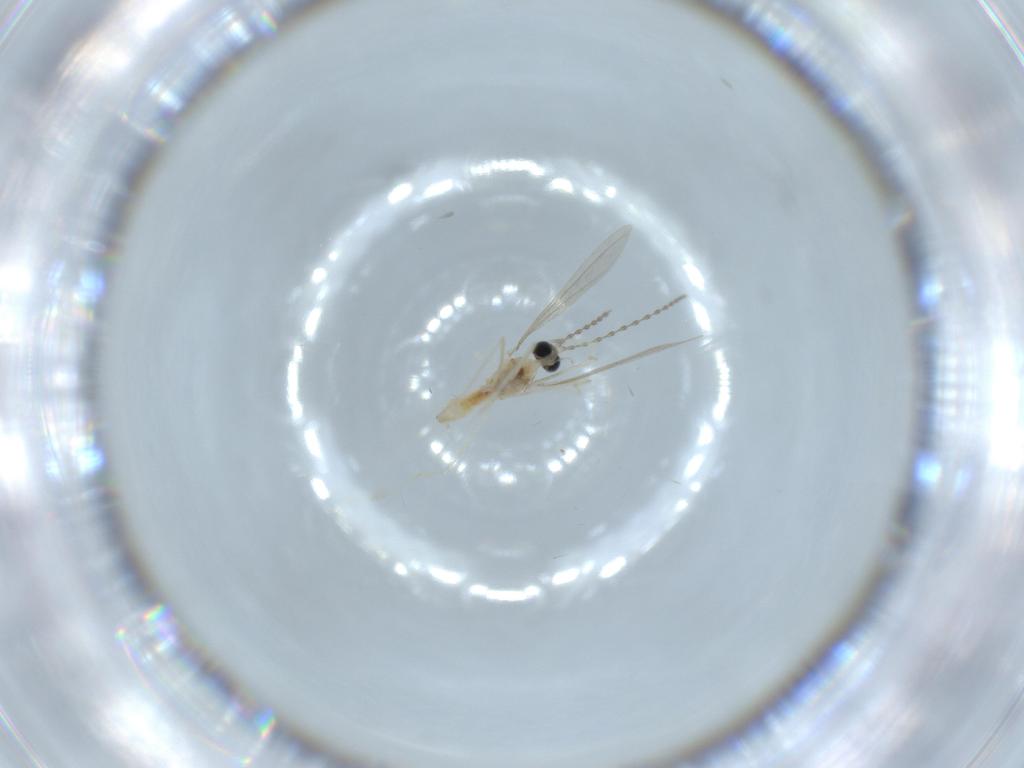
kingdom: Animalia
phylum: Arthropoda
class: Insecta
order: Diptera
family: Cecidomyiidae
